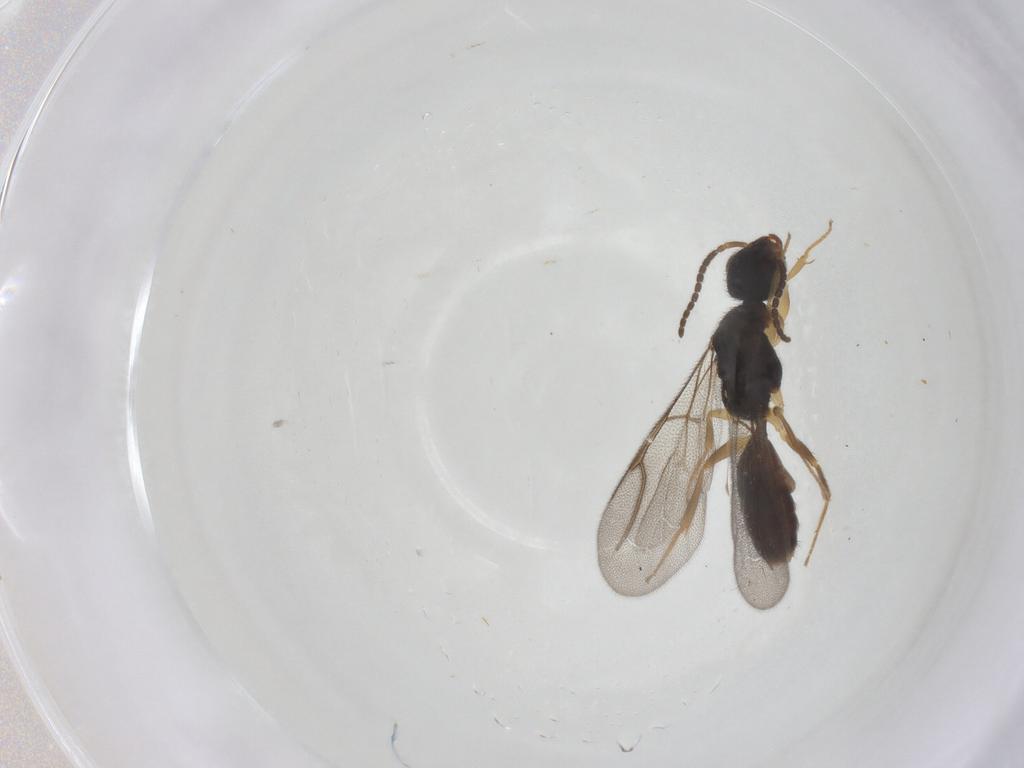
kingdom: Animalia
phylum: Arthropoda
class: Insecta
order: Hymenoptera
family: Bethylidae
